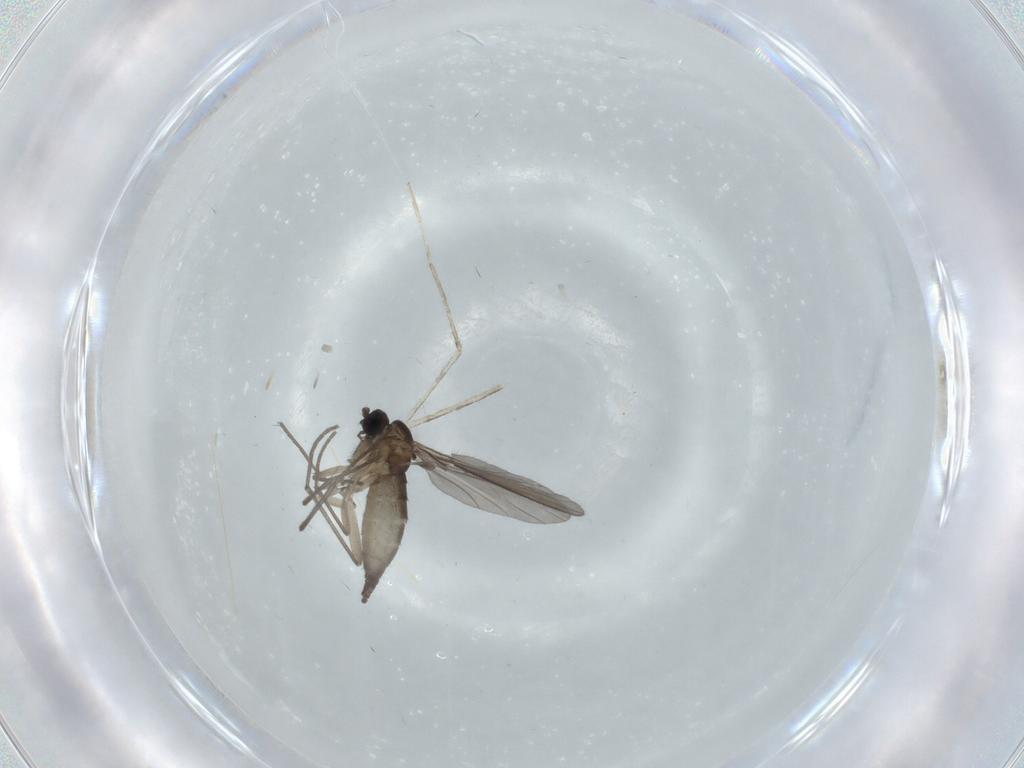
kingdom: Animalia
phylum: Arthropoda
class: Insecta
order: Diptera
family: Sciaridae
